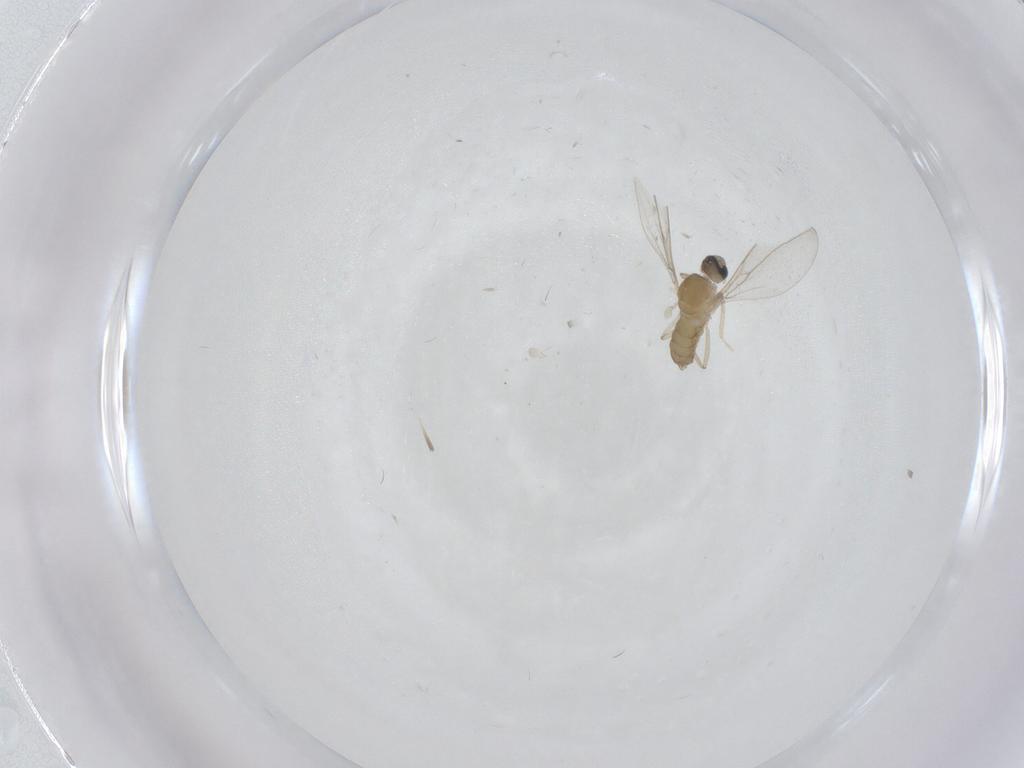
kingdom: Animalia
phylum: Arthropoda
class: Insecta
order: Diptera
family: Cecidomyiidae
